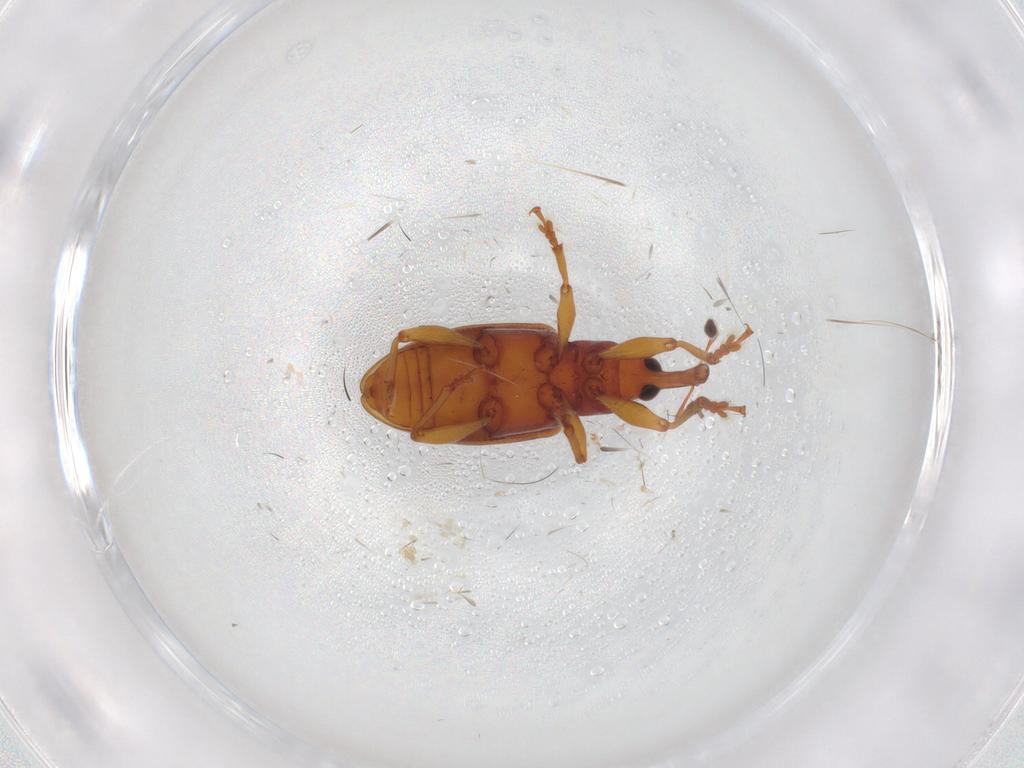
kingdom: Animalia
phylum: Arthropoda
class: Insecta
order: Coleoptera
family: Curculionidae
